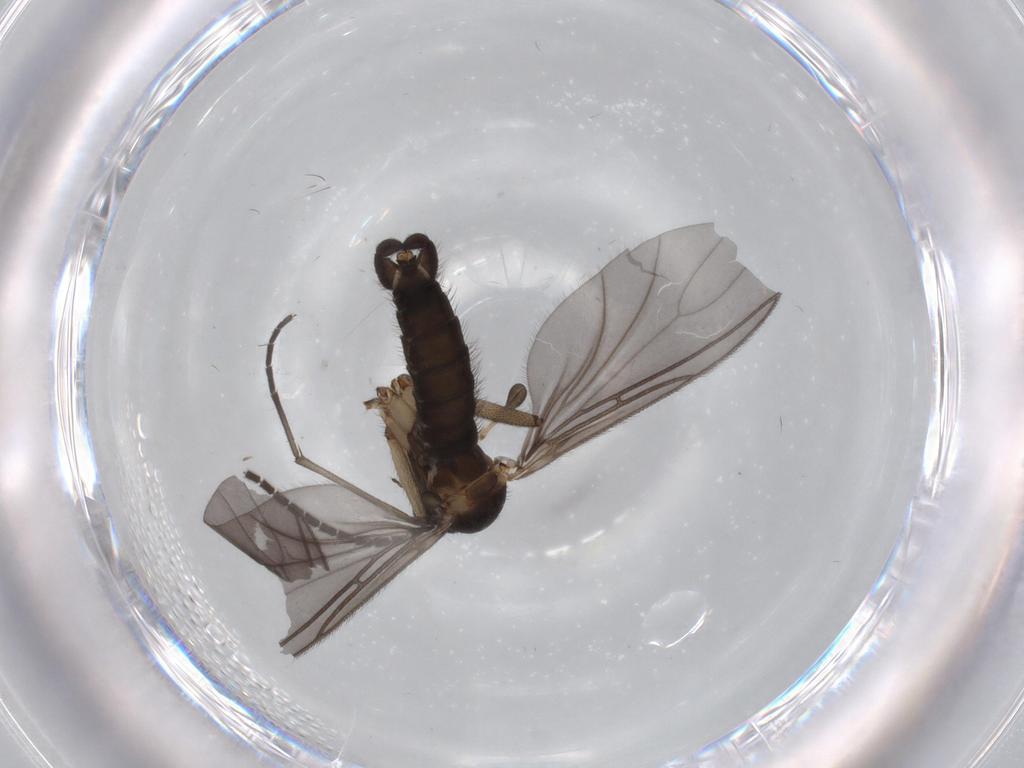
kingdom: Animalia
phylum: Arthropoda
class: Insecta
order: Diptera
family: Sciaridae
